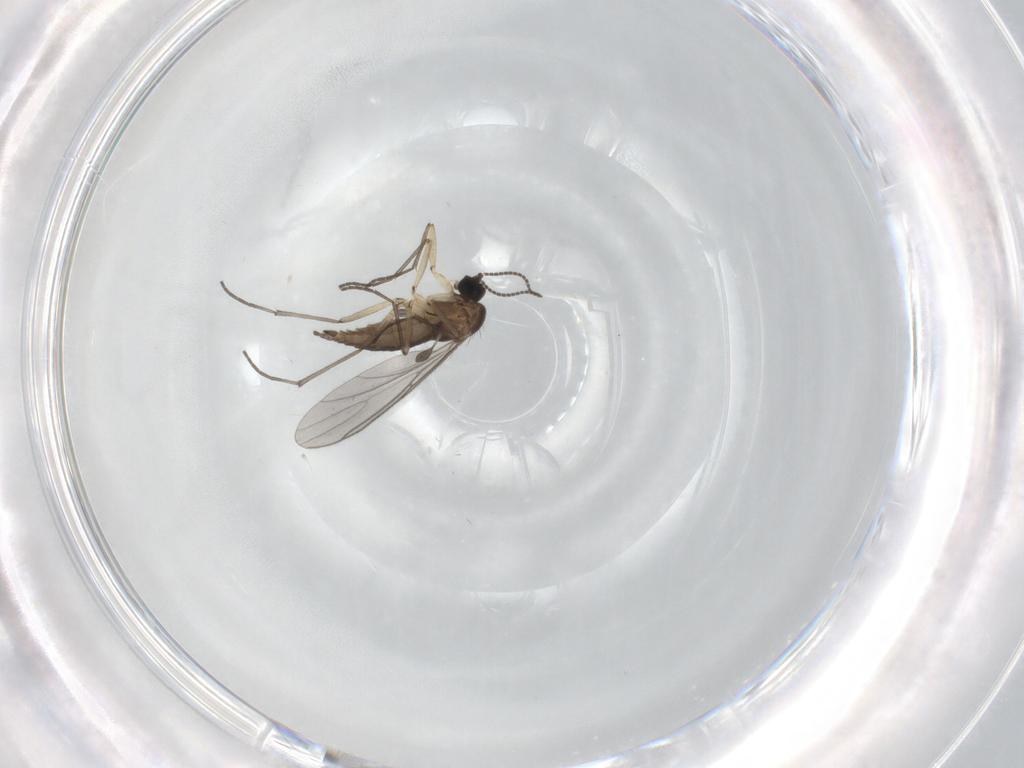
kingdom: Animalia
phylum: Arthropoda
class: Insecta
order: Diptera
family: Sciaridae
